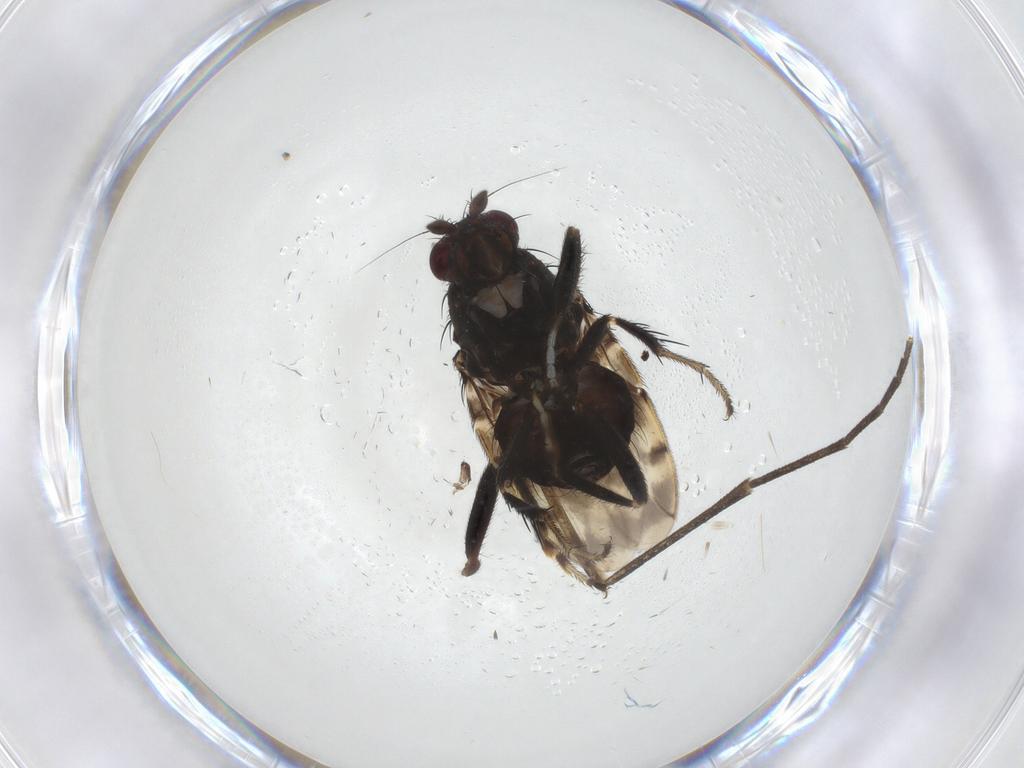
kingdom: Animalia
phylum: Arthropoda
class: Insecta
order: Diptera
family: Sphaeroceridae
